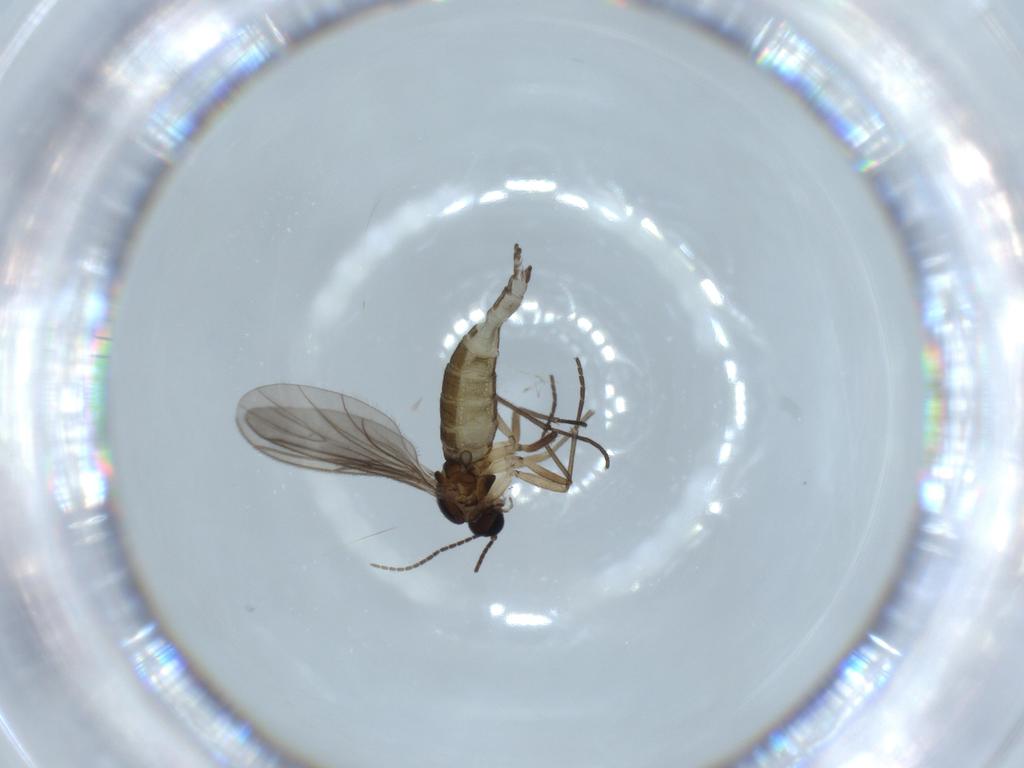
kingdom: Animalia
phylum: Arthropoda
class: Insecta
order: Diptera
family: Sciaridae
